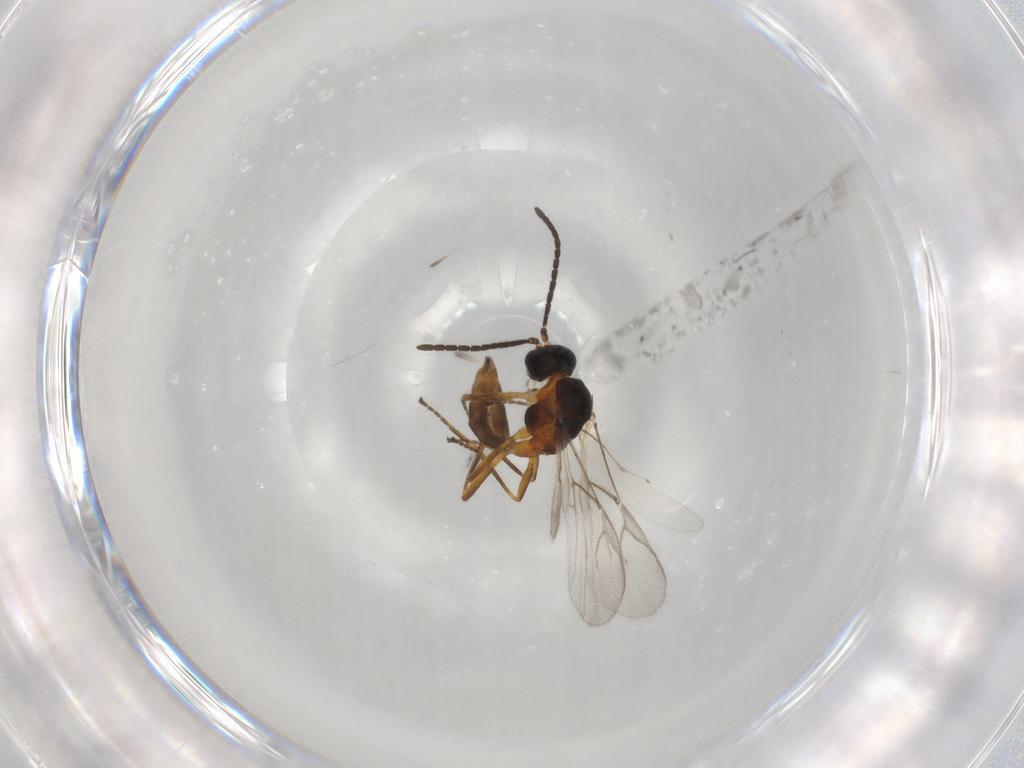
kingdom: Animalia
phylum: Arthropoda
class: Insecta
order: Hymenoptera
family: Braconidae
